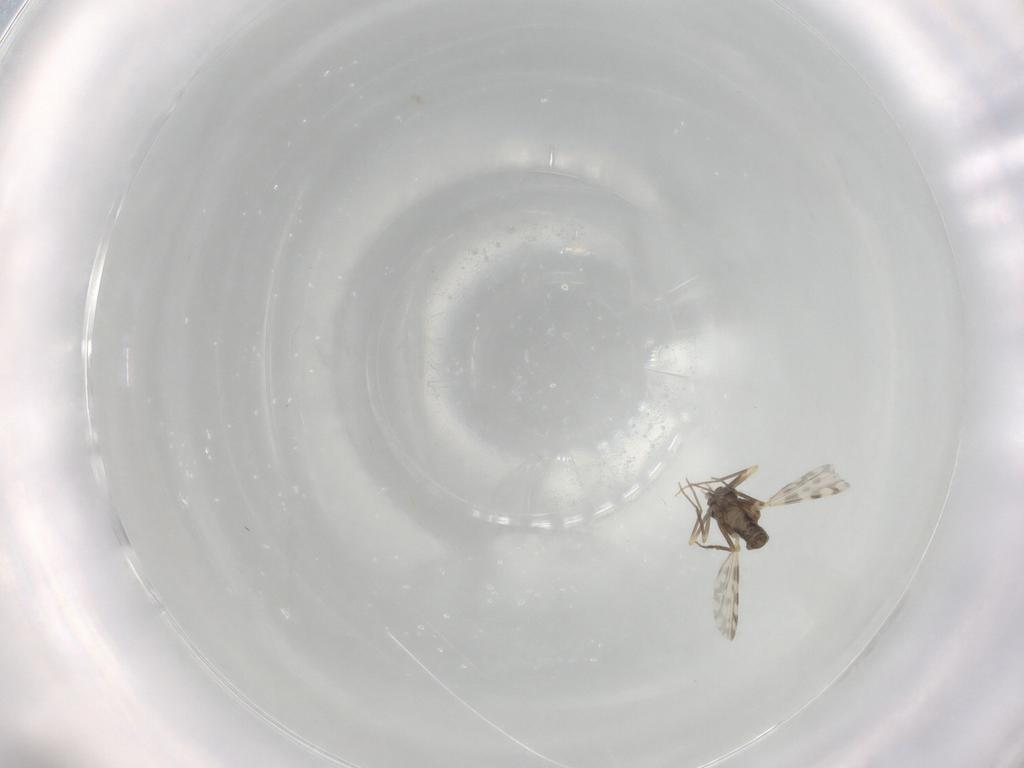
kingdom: Animalia
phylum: Arthropoda
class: Insecta
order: Diptera
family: Ceratopogonidae
